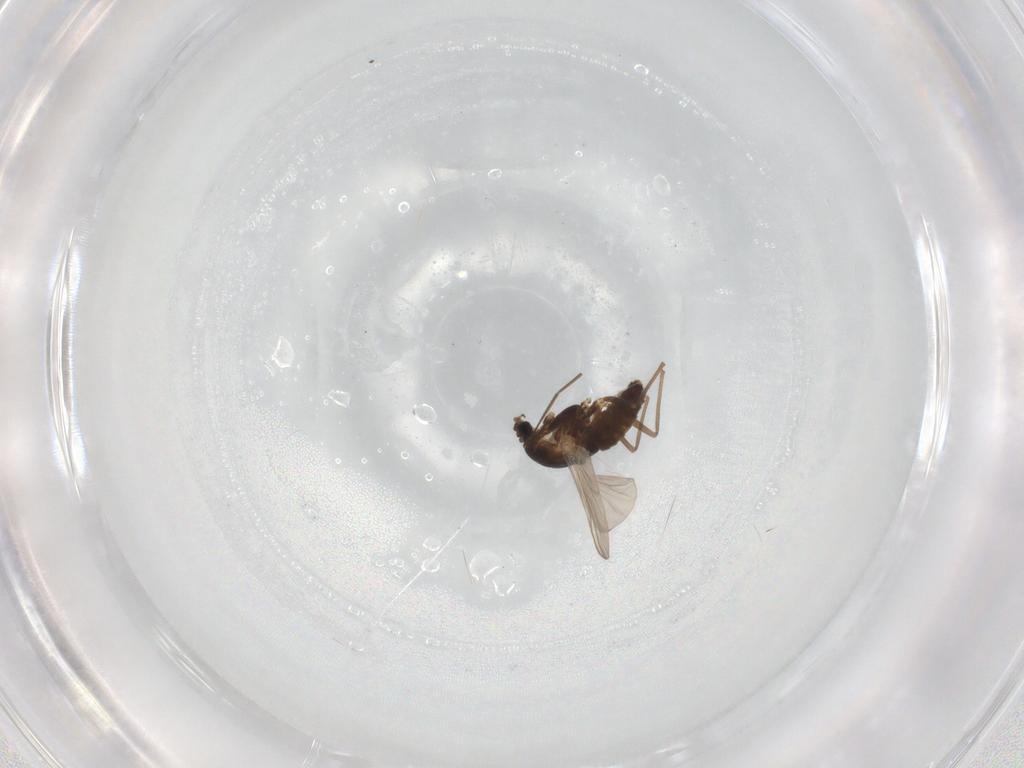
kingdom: Animalia
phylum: Arthropoda
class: Insecta
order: Diptera
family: Chironomidae
